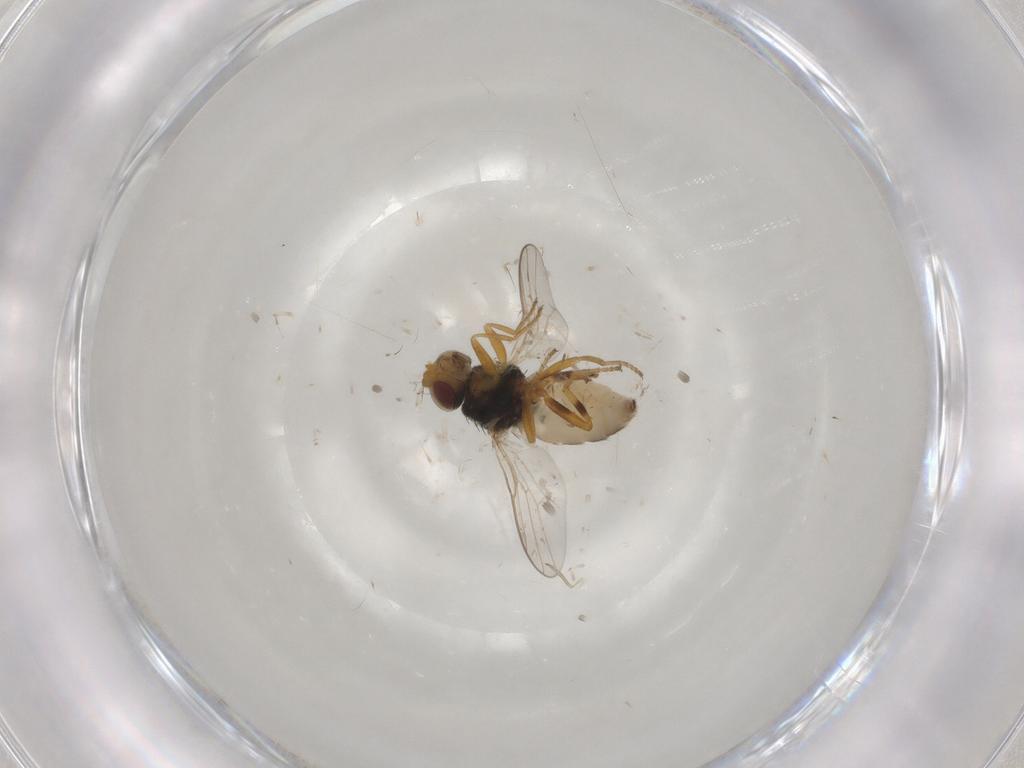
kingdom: Animalia
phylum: Arthropoda
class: Insecta
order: Diptera
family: Chloropidae
